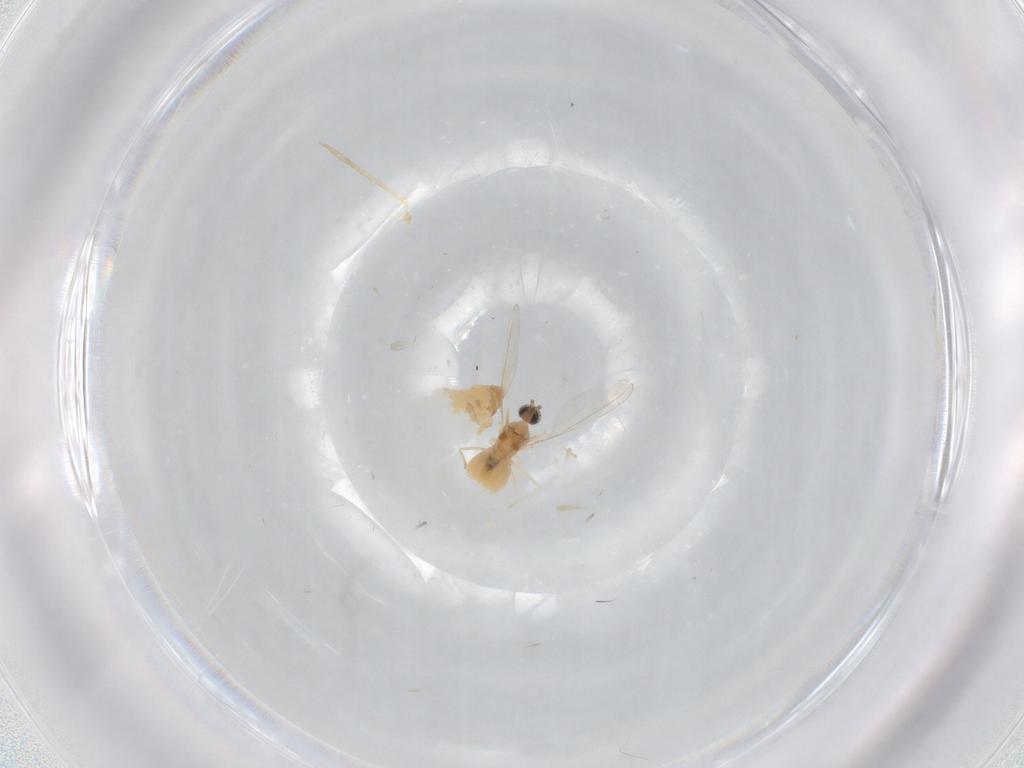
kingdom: Animalia
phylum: Arthropoda
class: Insecta
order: Diptera
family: Cecidomyiidae
